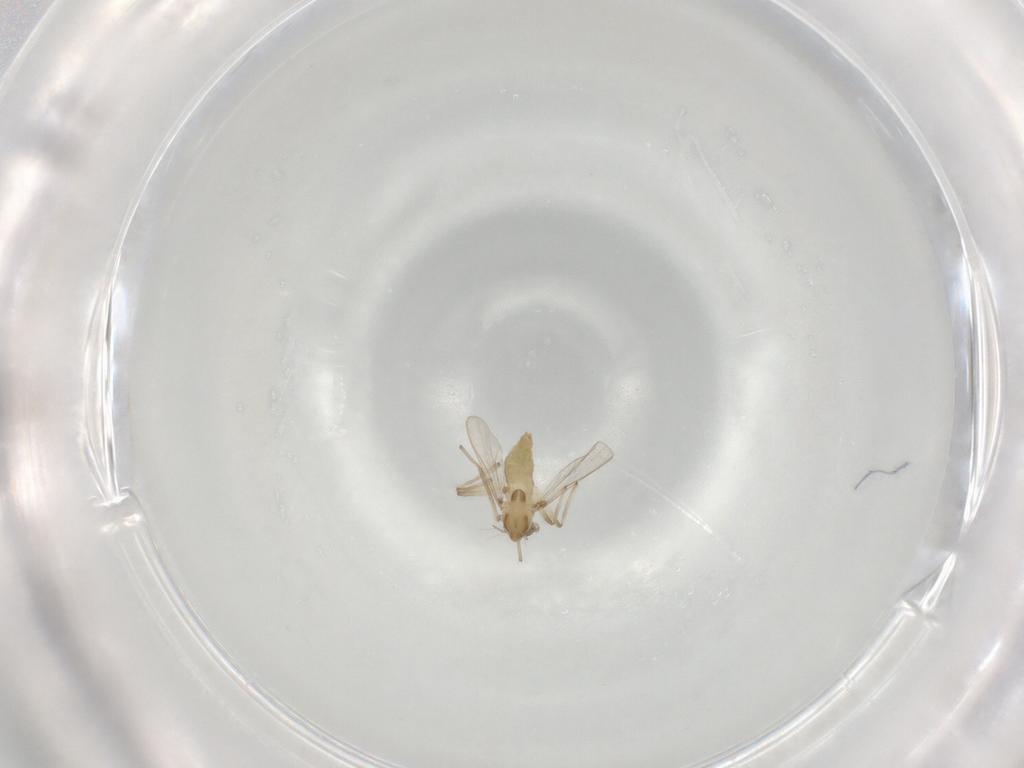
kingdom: Animalia
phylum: Arthropoda
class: Insecta
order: Diptera
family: Chironomidae
